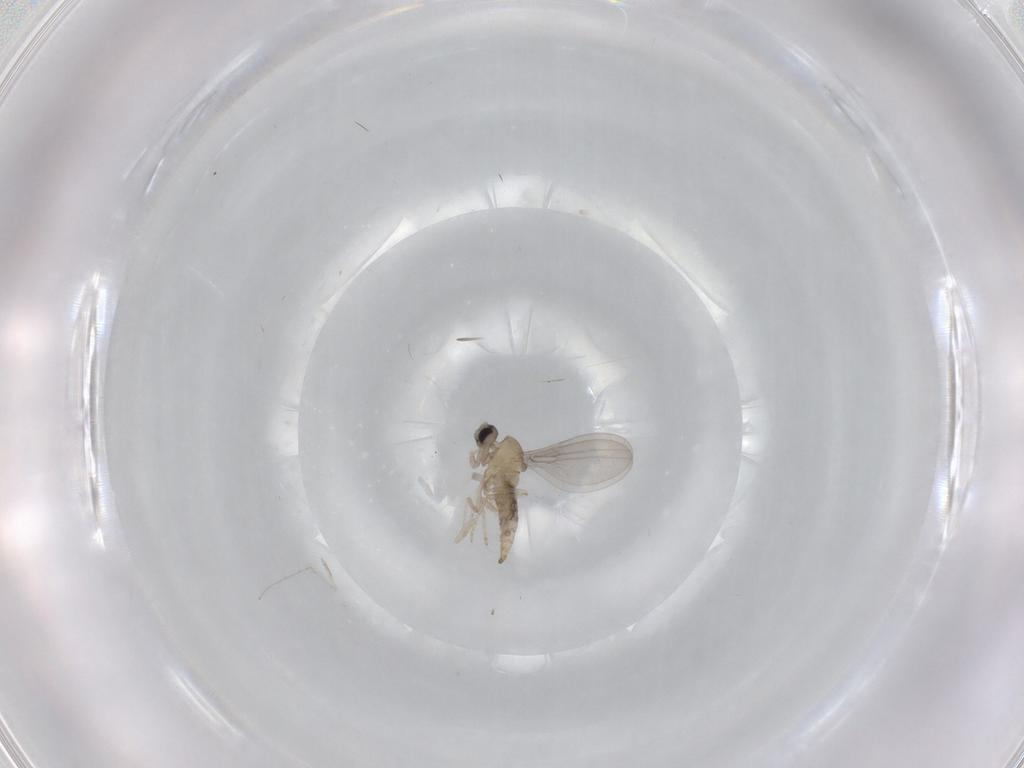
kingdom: Animalia
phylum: Arthropoda
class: Insecta
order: Diptera
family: Cecidomyiidae
